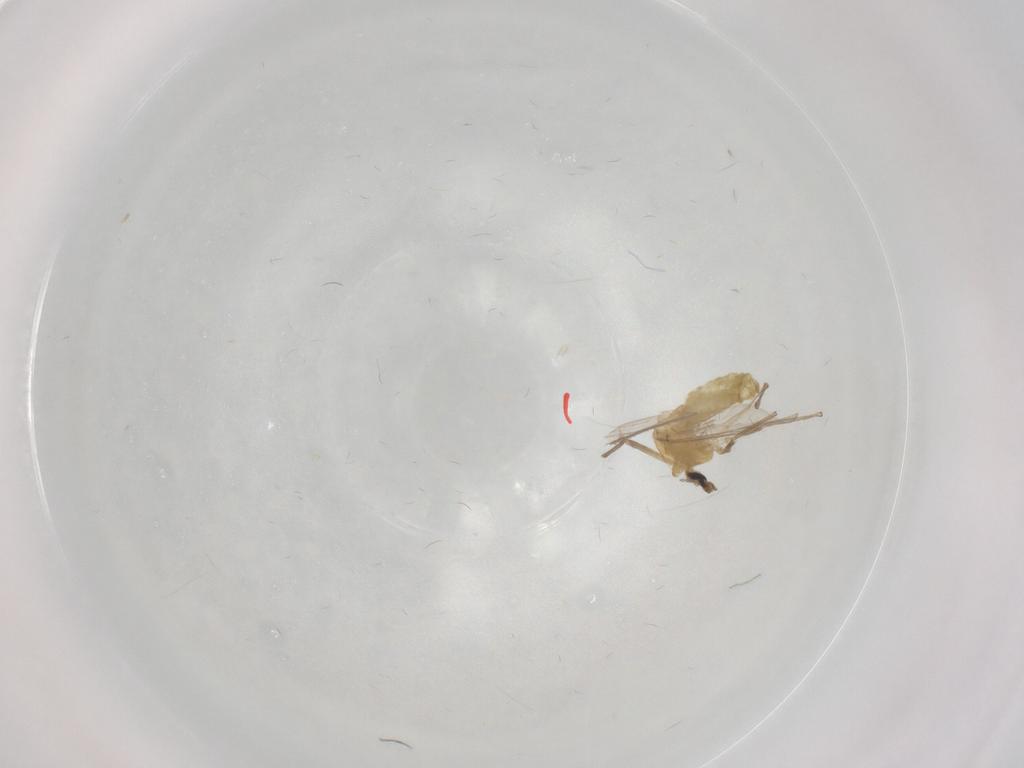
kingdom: Animalia
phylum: Arthropoda
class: Insecta
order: Diptera
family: Chironomidae
